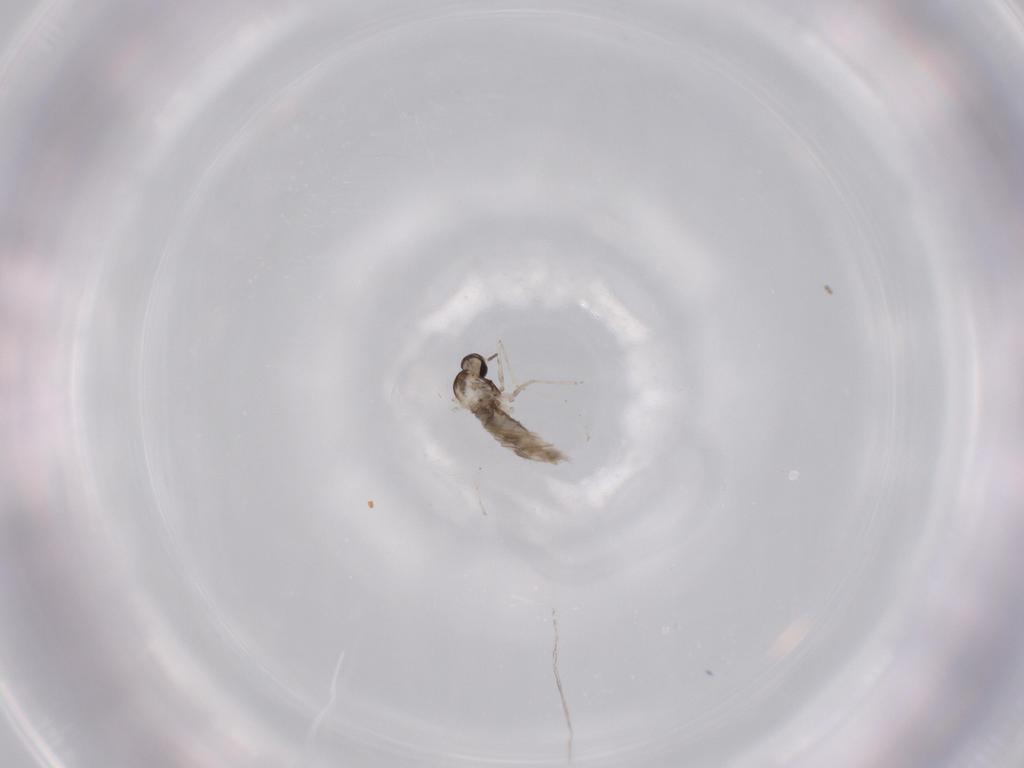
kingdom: Animalia
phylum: Arthropoda
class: Insecta
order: Diptera
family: Cecidomyiidae
